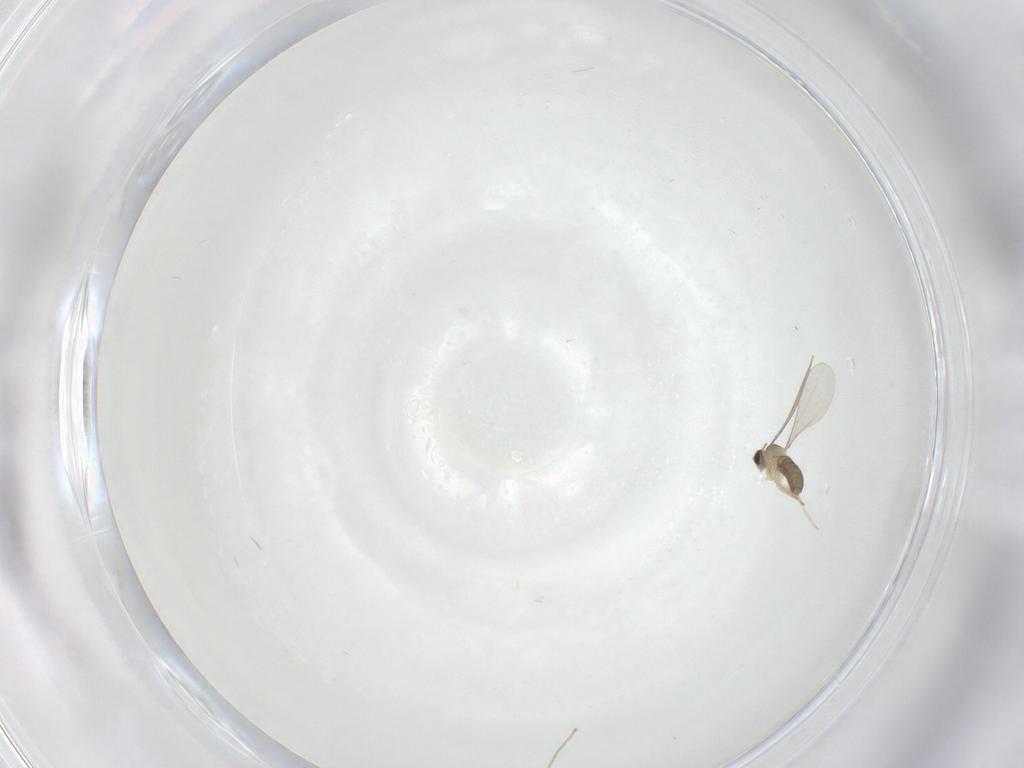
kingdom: Animalia
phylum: Arthropoda
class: Insecta
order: Diptera
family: Cecidomyiidae
